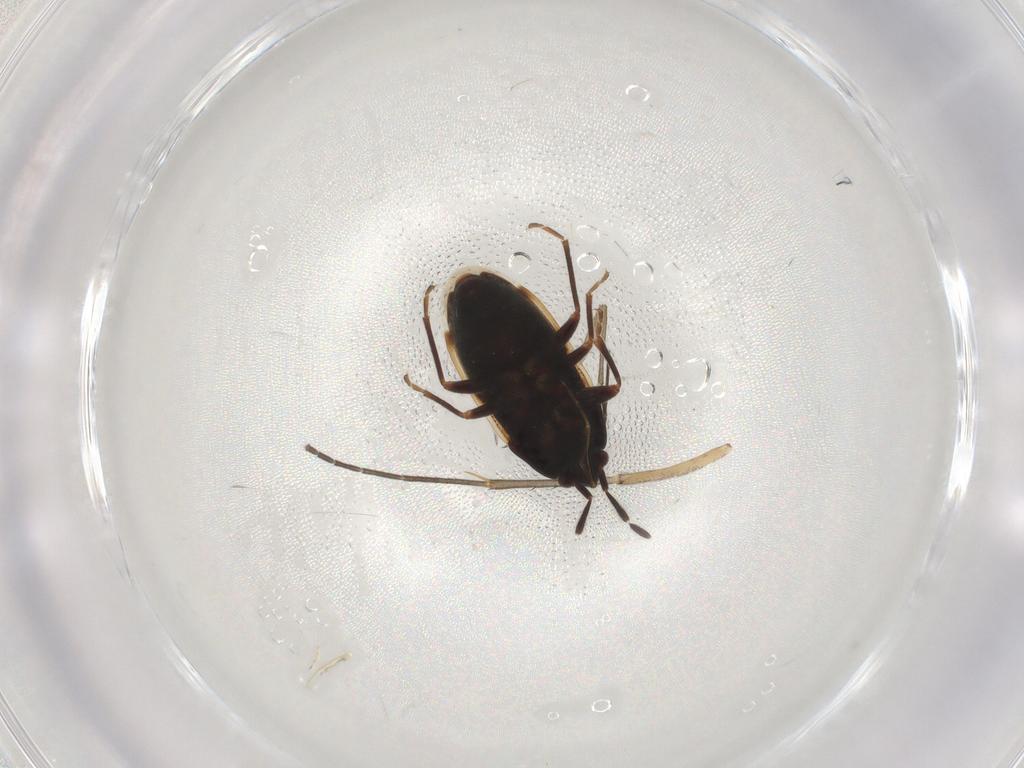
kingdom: Animalia
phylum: Arthropoda
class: Insecta
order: Hemiptera
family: Rhyparochromidae
